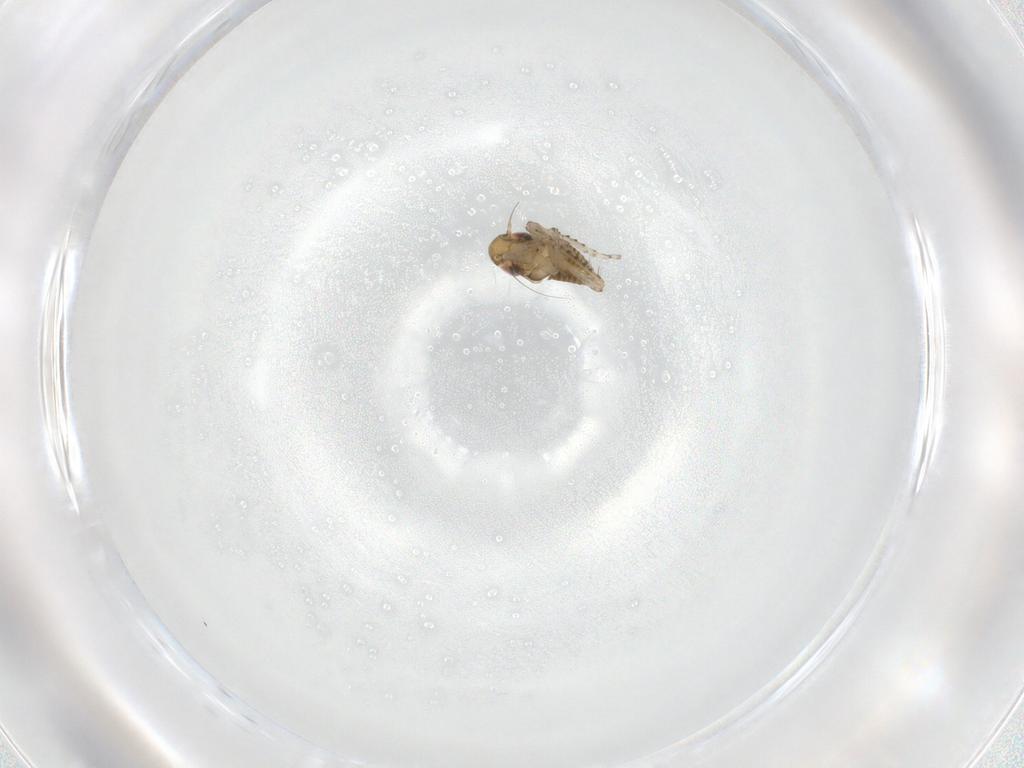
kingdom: Animalia
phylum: Arthropoda
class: Insecta
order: Hemiptera
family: Cicadellidae
